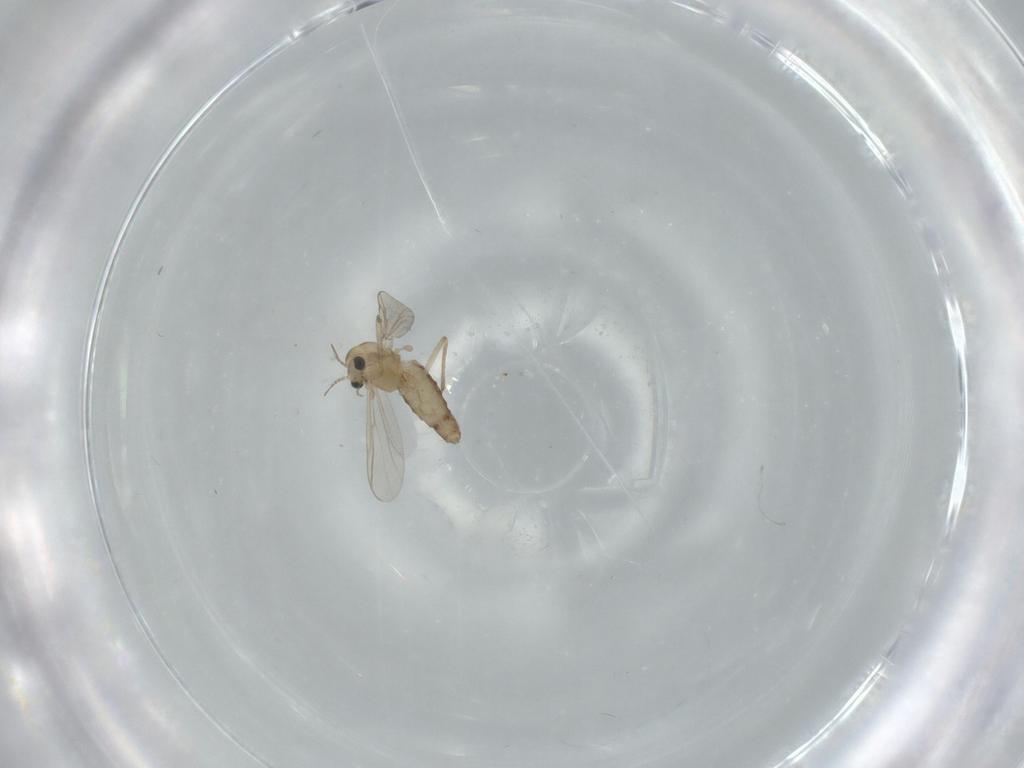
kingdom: Animalia
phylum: Arthropoda
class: Insecta
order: Diptera
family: Chironomidae
